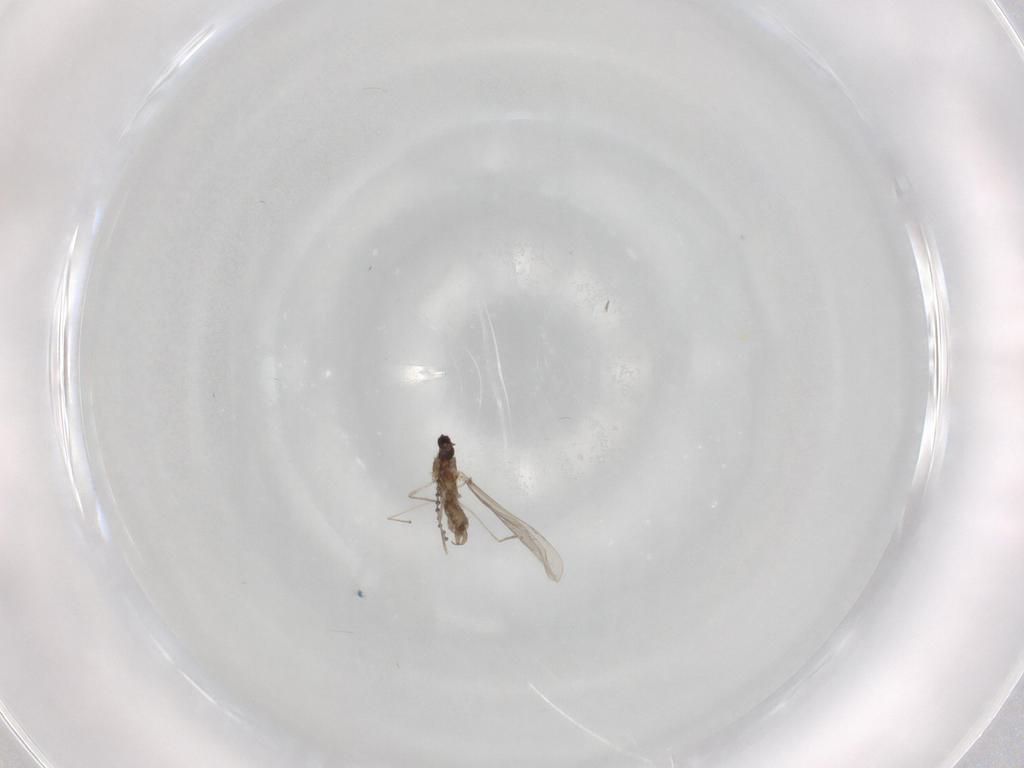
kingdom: Animalia
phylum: Arthropoda
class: Insecta
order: Diptera
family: Cecidomyiidae
